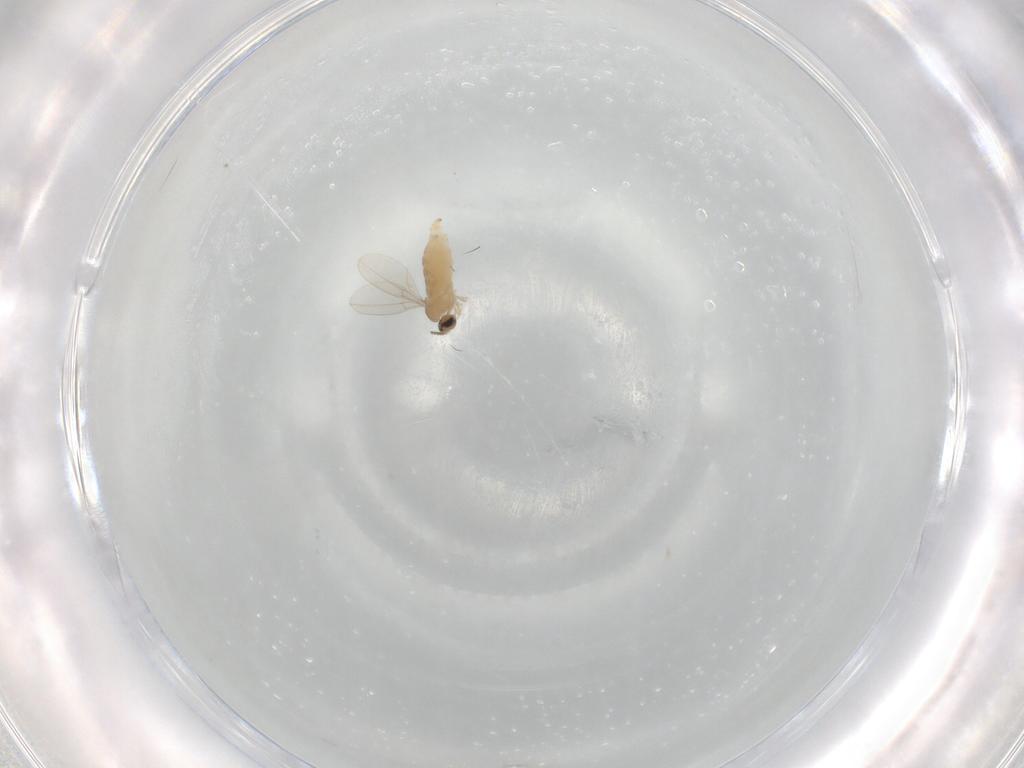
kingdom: Animalia
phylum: Arthropoda
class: Insecta
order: Diptera
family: Cecidomyiidae
